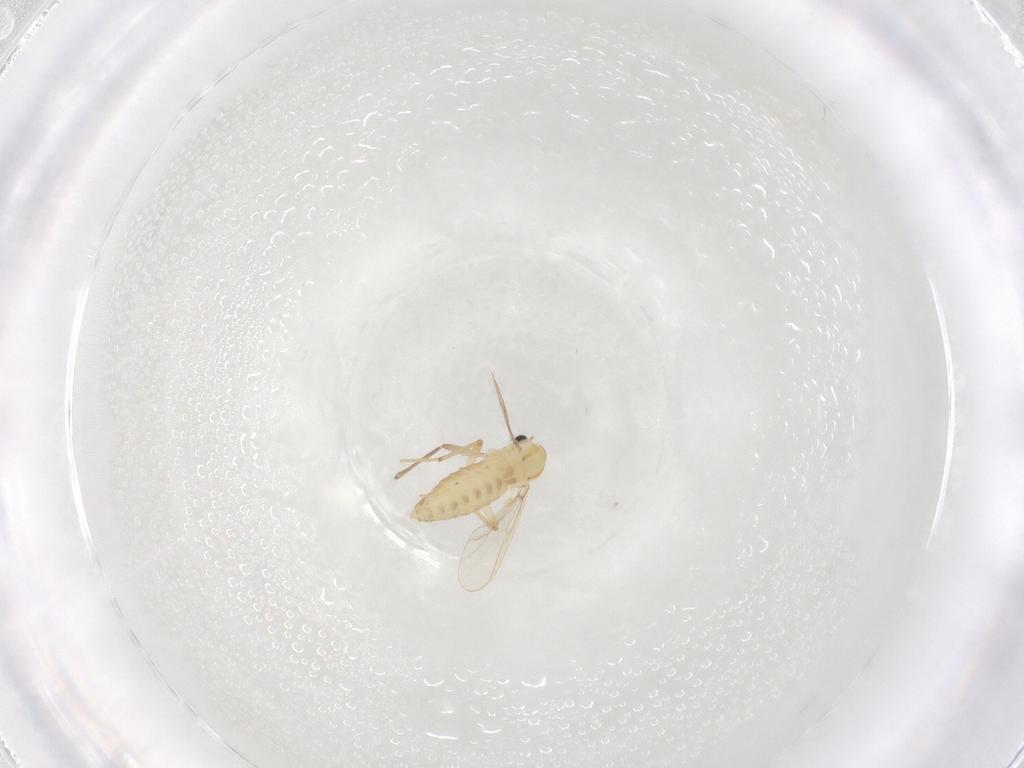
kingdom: Animalia
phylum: Arthropoda
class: Insecta
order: Diptera
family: Chironomidae
